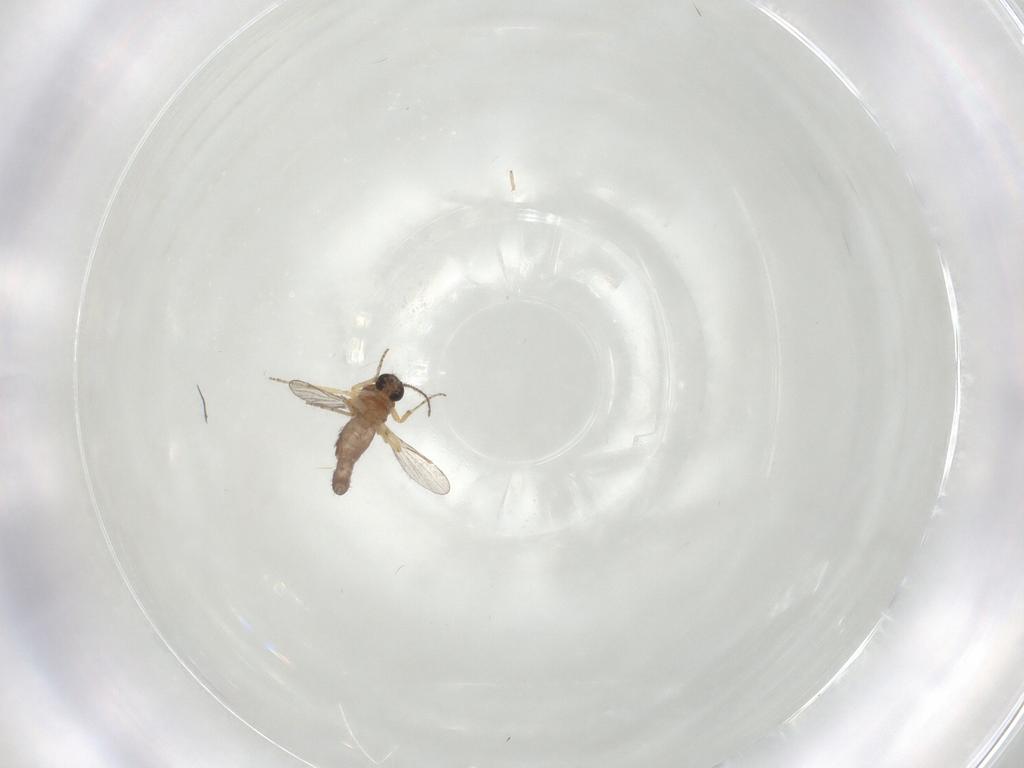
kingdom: Animalia
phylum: Arthropoda
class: Insecta
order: Diptera
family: Ceratopogonidae
